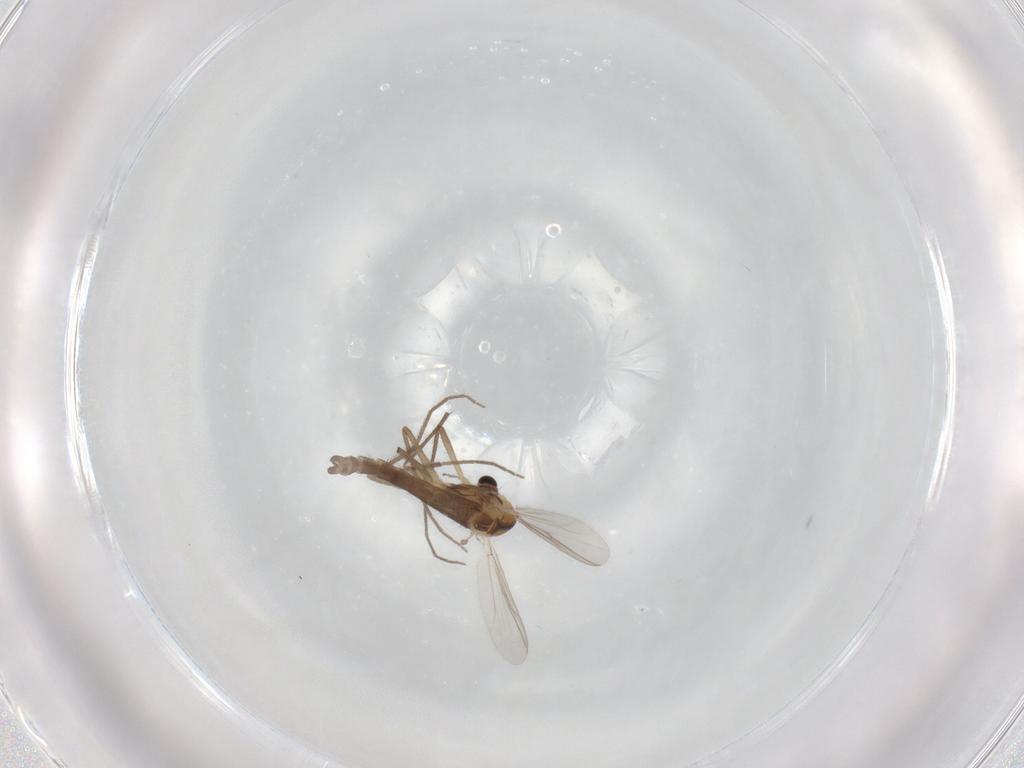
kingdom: Animalia
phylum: Arthropoda
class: Insecta
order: Diptera
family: Chironomidae
